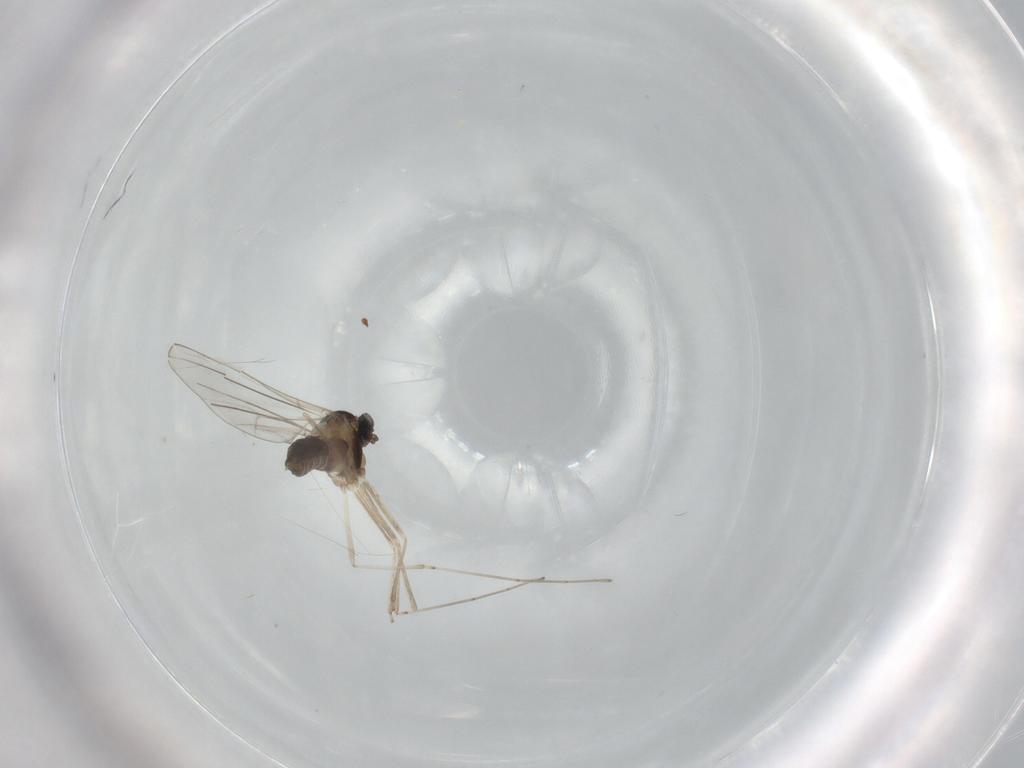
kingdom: Animalia
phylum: Arthropoda
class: Insecta
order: Diptera
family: Cecidomyiidae
